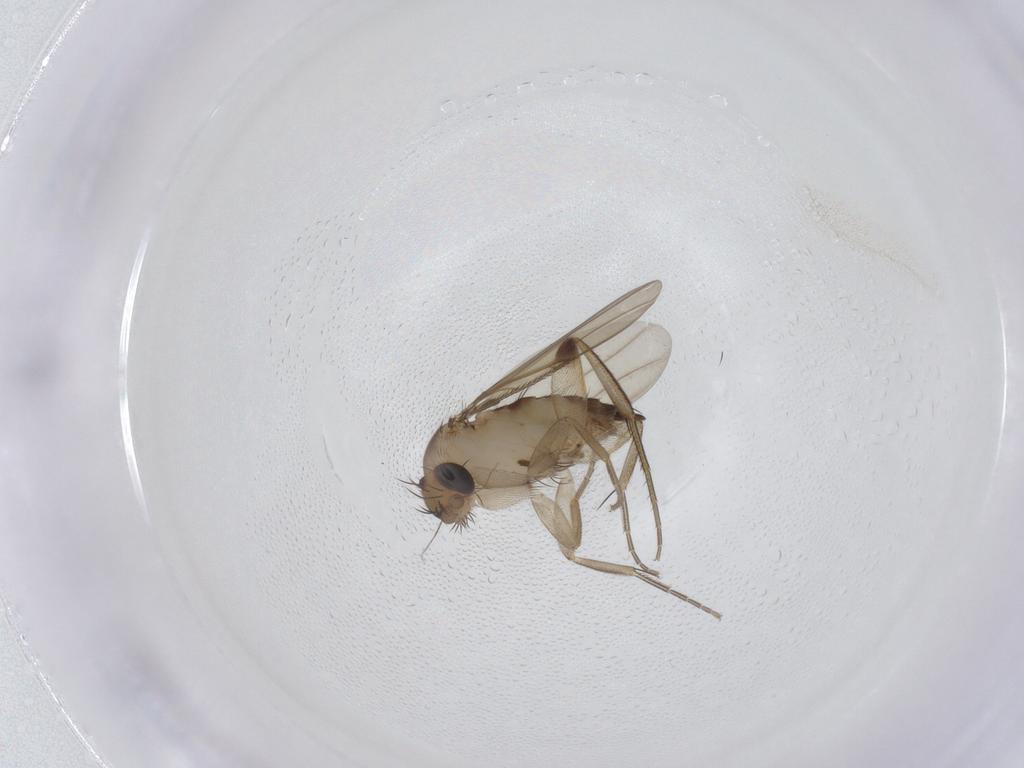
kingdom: Animalia
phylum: Arthropoda
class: Insecta
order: Diptera
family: Phoridae
